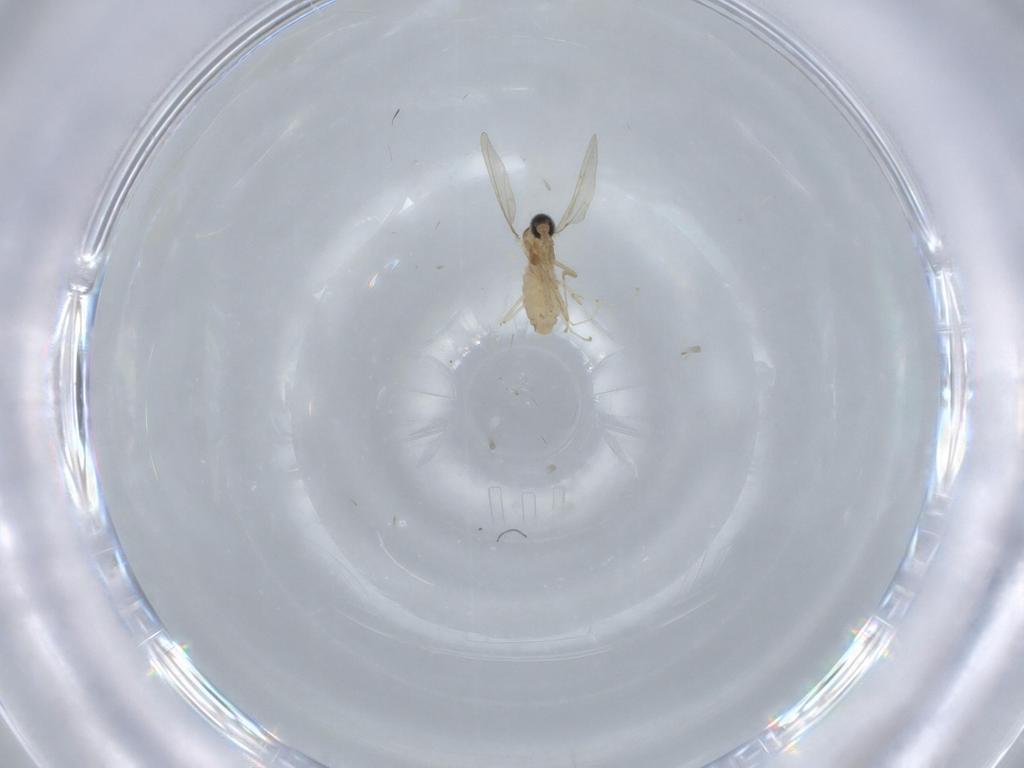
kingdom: Animalia
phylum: Arthropoda
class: Insecta
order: Diptera
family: Cecidomyiidae
